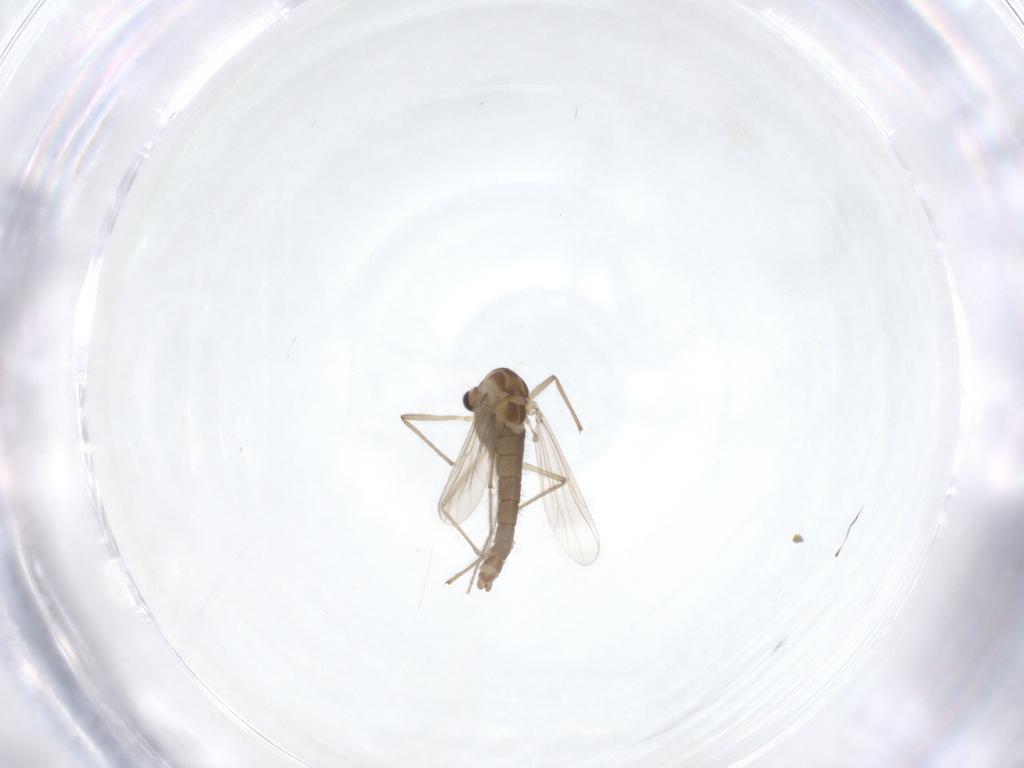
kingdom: Animalia
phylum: Arthropoda
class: Insecta
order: Diptera
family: Chironomidae
